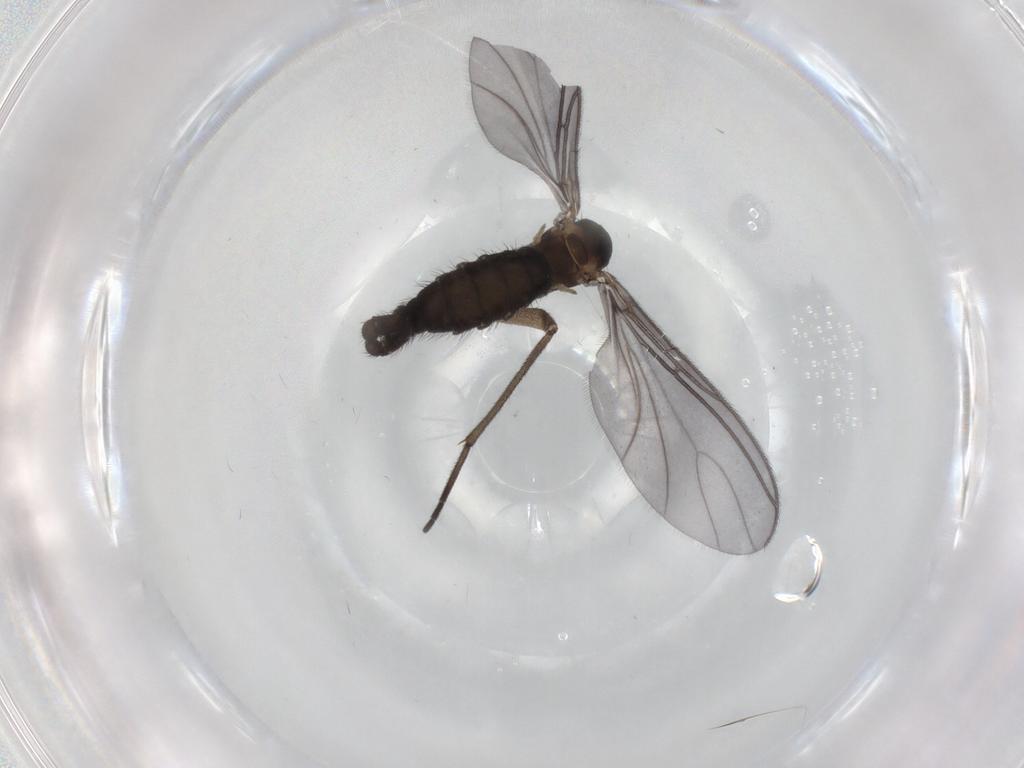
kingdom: Animalia
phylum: Arthropoda
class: Insecta
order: Diptera
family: Sciaridae
